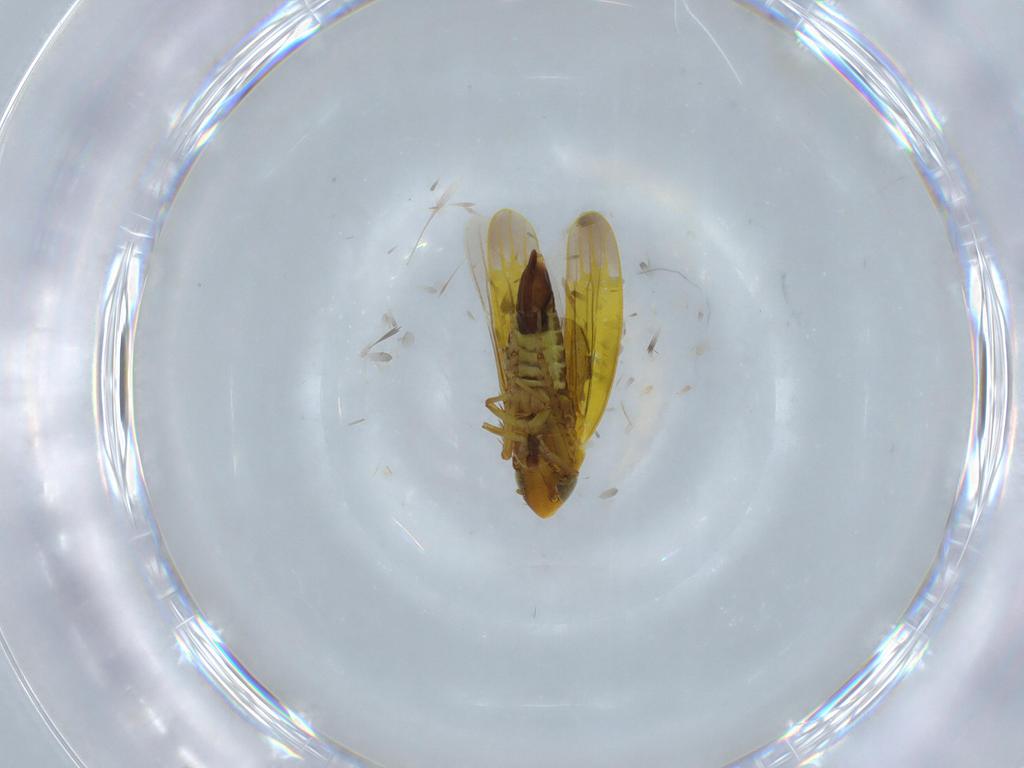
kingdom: Animalia
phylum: Arthropoda
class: Insecta
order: Hemiptera
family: Cicadellidae
